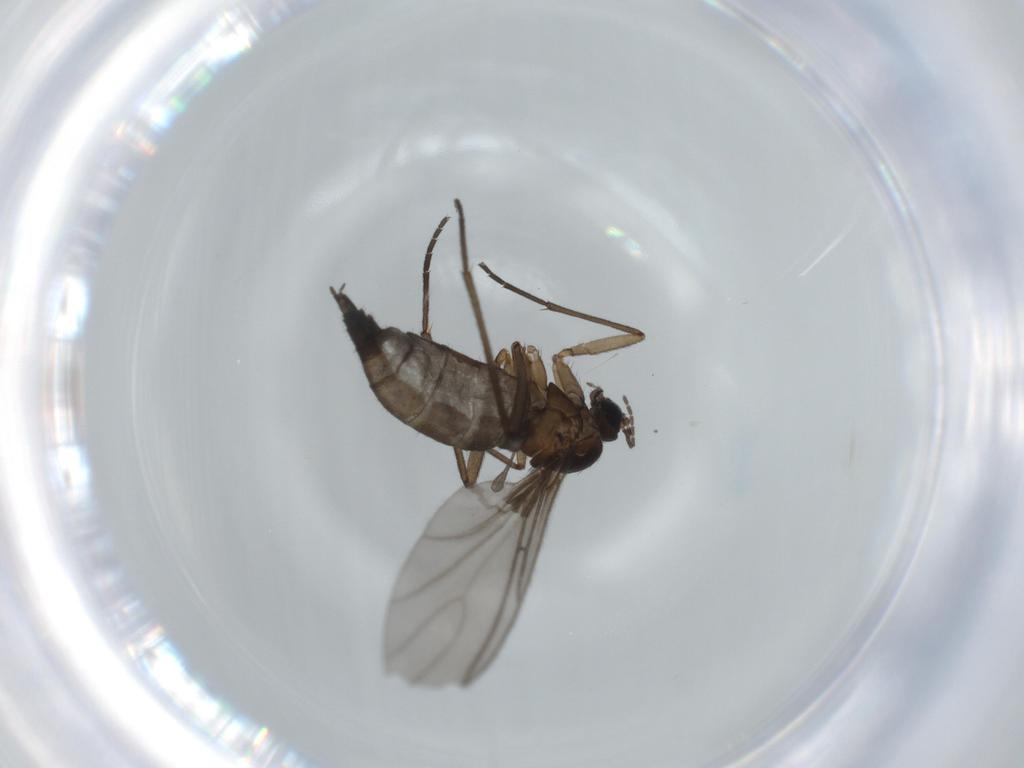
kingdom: Animalia
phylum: Arthropoda
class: Insecta
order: Diptera
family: Sciaridae
